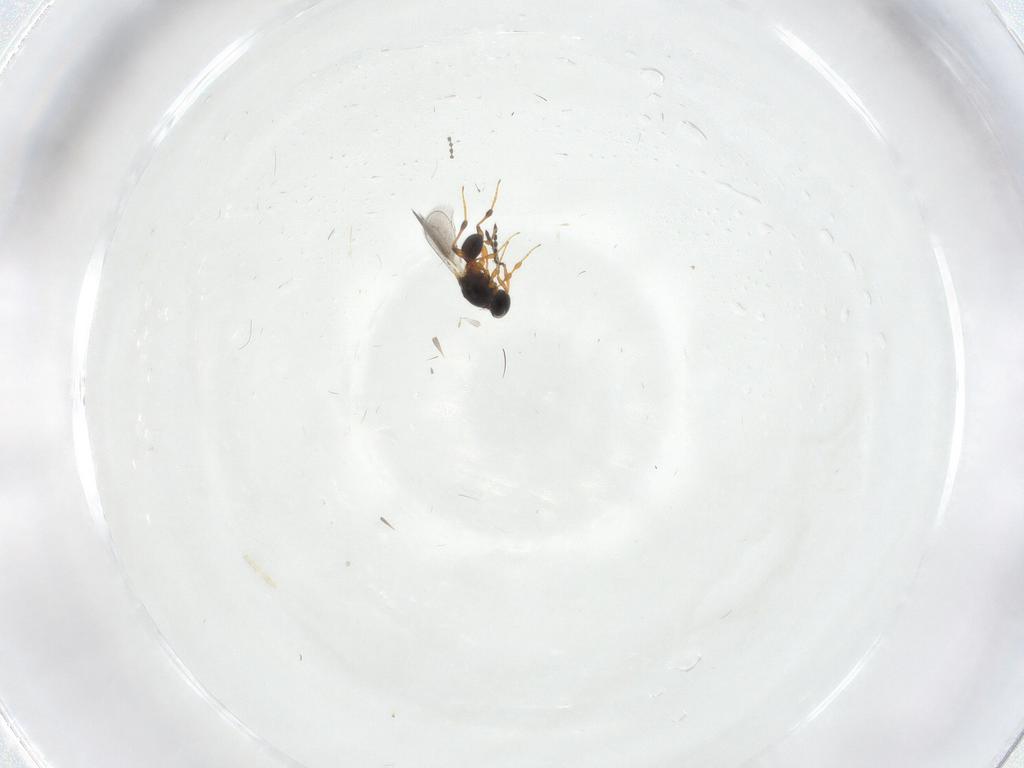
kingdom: Animalia
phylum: Arthropoda
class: Insecta
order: Hymenoptera
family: Platygastridae
